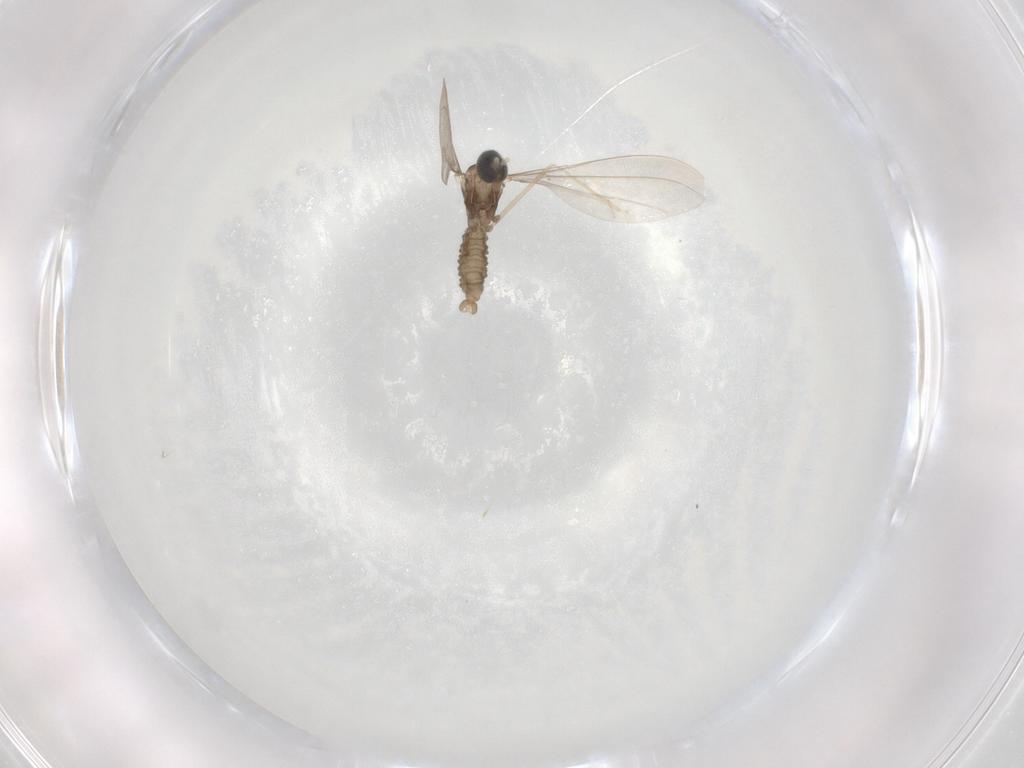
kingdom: Animalia
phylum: Arthropoda
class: Insecta
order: Diptera
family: Cecidomyiidae
